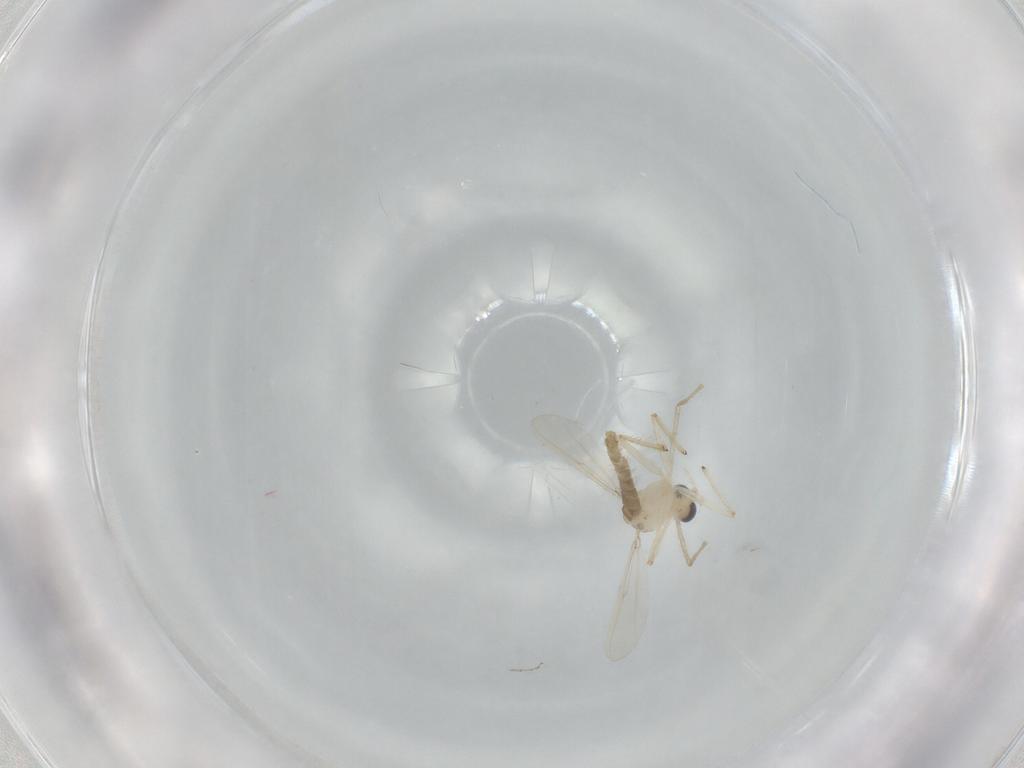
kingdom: Animalia
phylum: Arthropoda
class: Insecta
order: Diptera
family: Chironomidae
